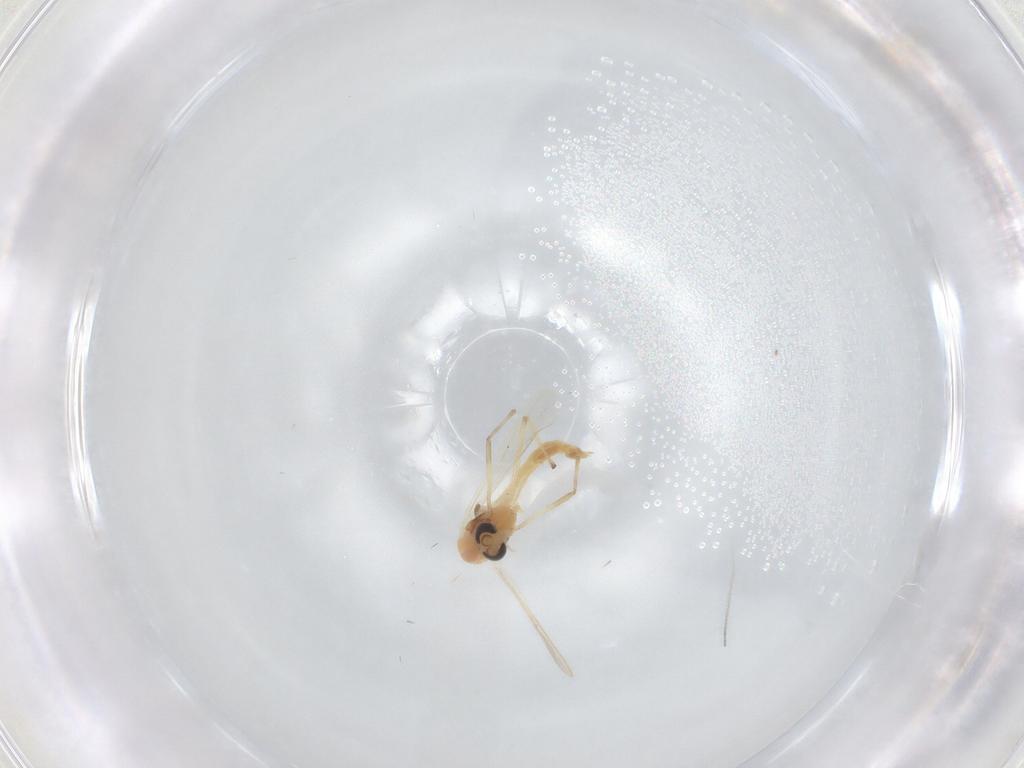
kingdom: Animalia
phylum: Arthropoda
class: Insecta
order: Diptera
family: Chironomidae
